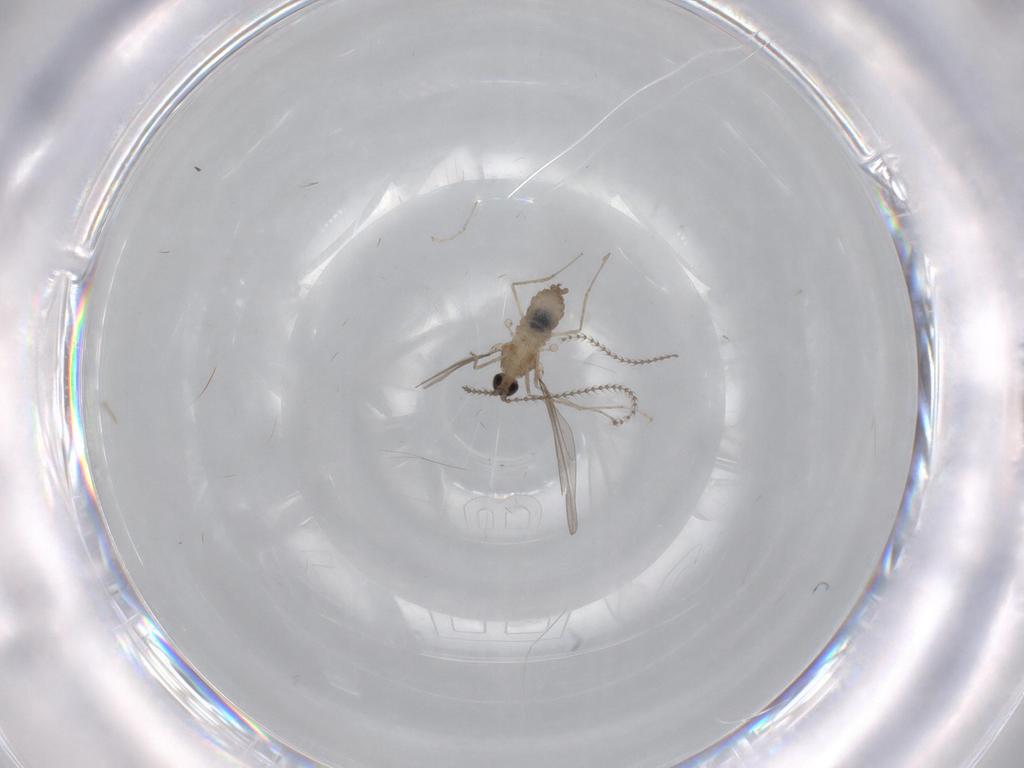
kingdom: Animalia
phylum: Arthropoda
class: Insecta
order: Diptera
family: Cecidomyiidae
